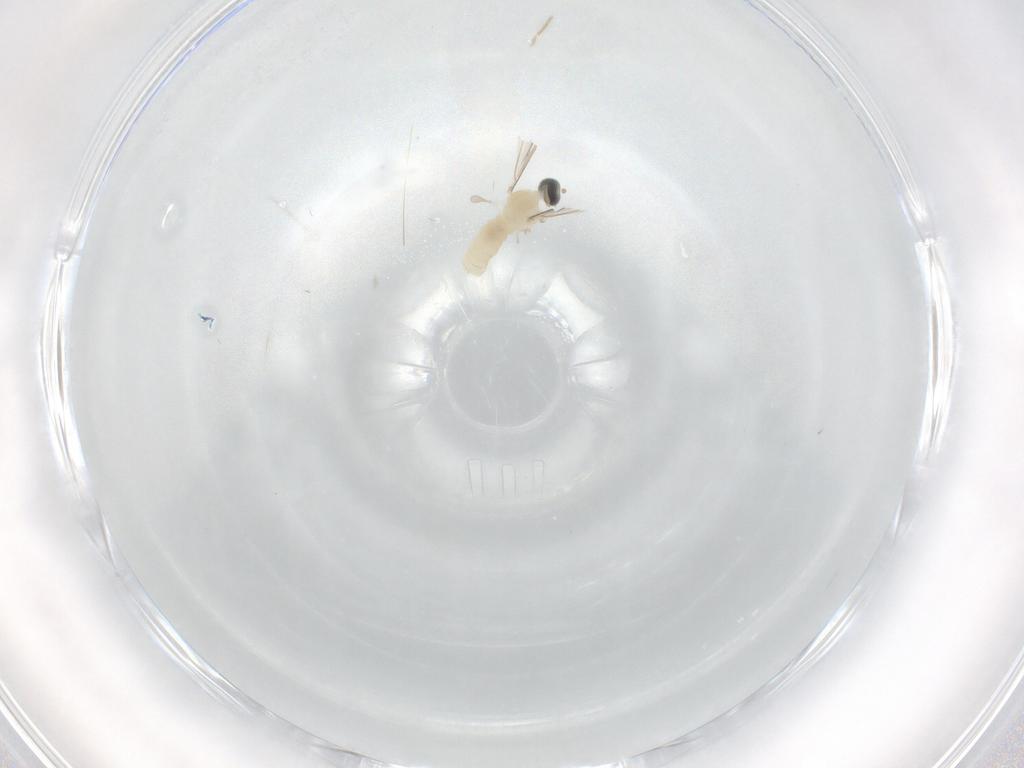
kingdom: Animalia
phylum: Arthropoda
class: Insecta
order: Diptera
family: Cecidomyiidae
